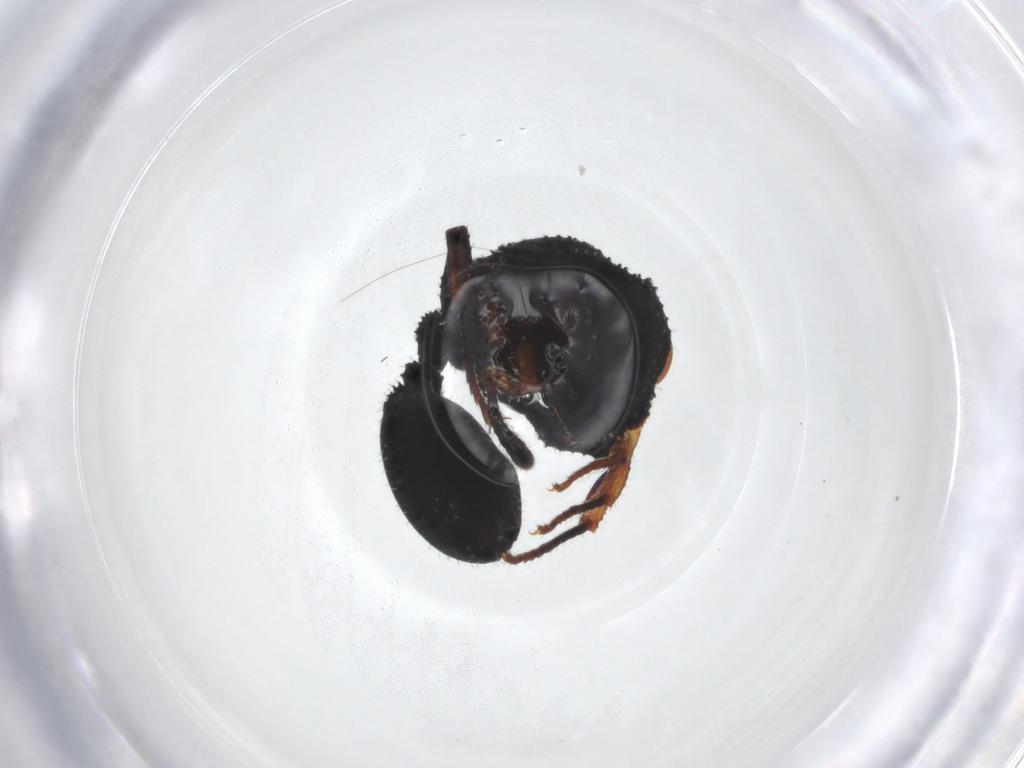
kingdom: Animalia
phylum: Arthropoda
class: Insecta
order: Hymenoptera
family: Formicidae
